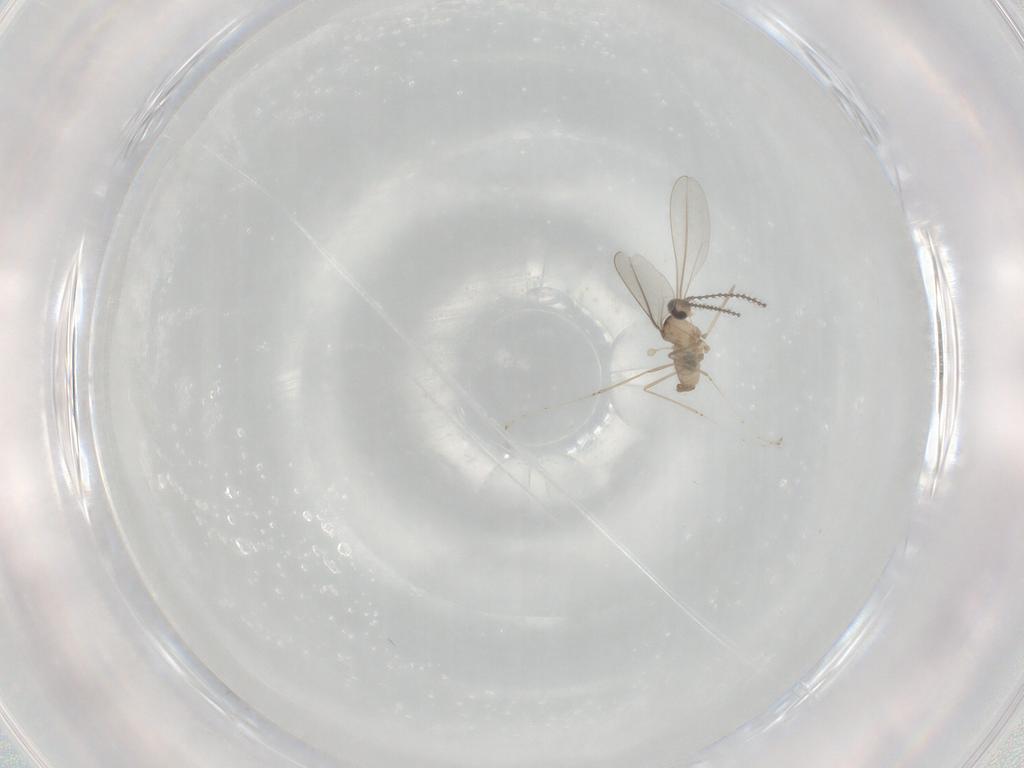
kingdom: Animalia
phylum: Arthropoda
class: Insecta
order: Diptera
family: Cecidomyiidae
